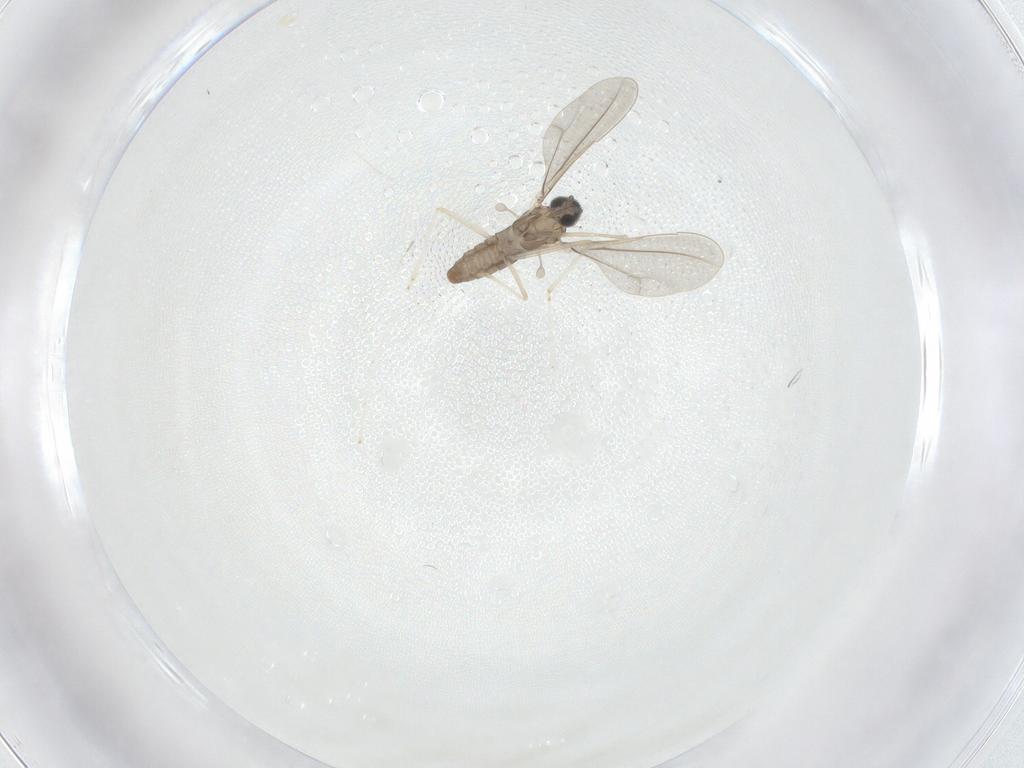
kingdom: Animalia
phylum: Arthropoda
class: Insecta
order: Diptera
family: Cecidomyiidae
